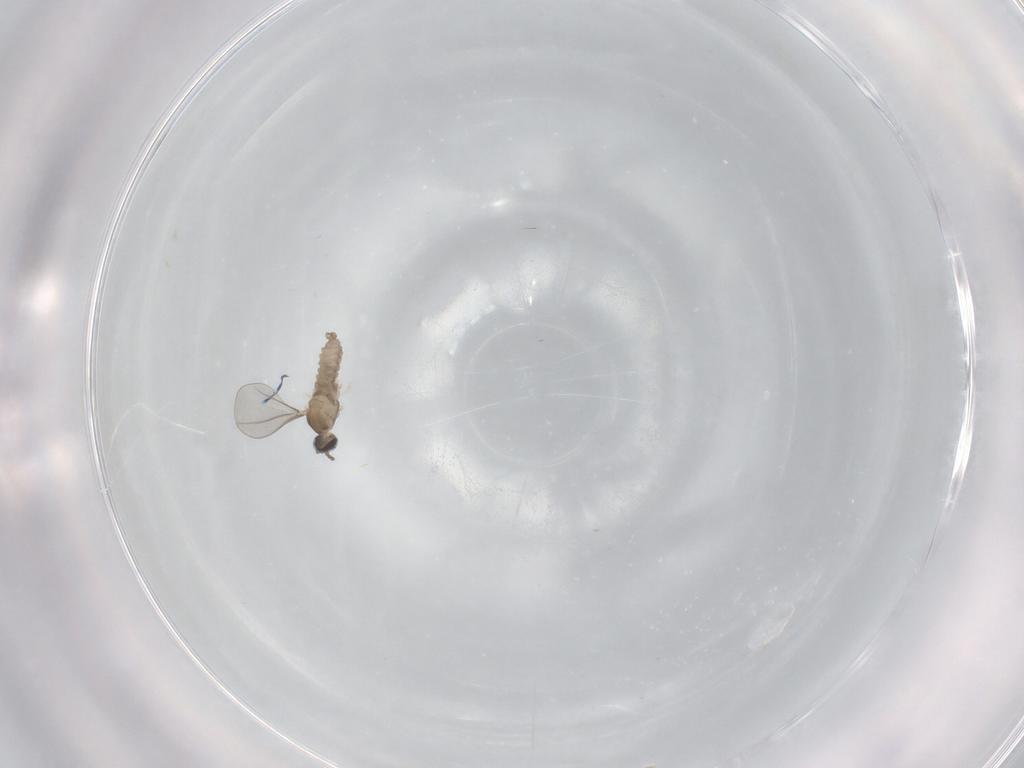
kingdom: Animalia
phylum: Arthropoda
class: Insecta
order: Diptera
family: Cecidomyiidae
